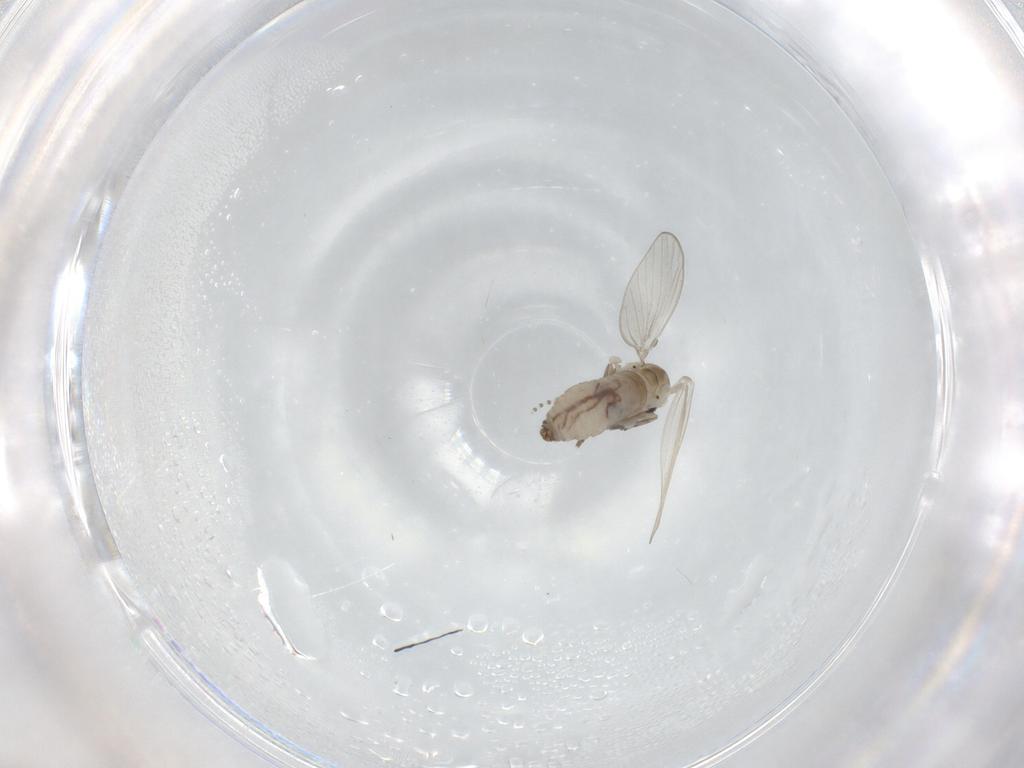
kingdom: Animalia
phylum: Arthropoda
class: Insecta
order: Diptera
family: Psychodidae
